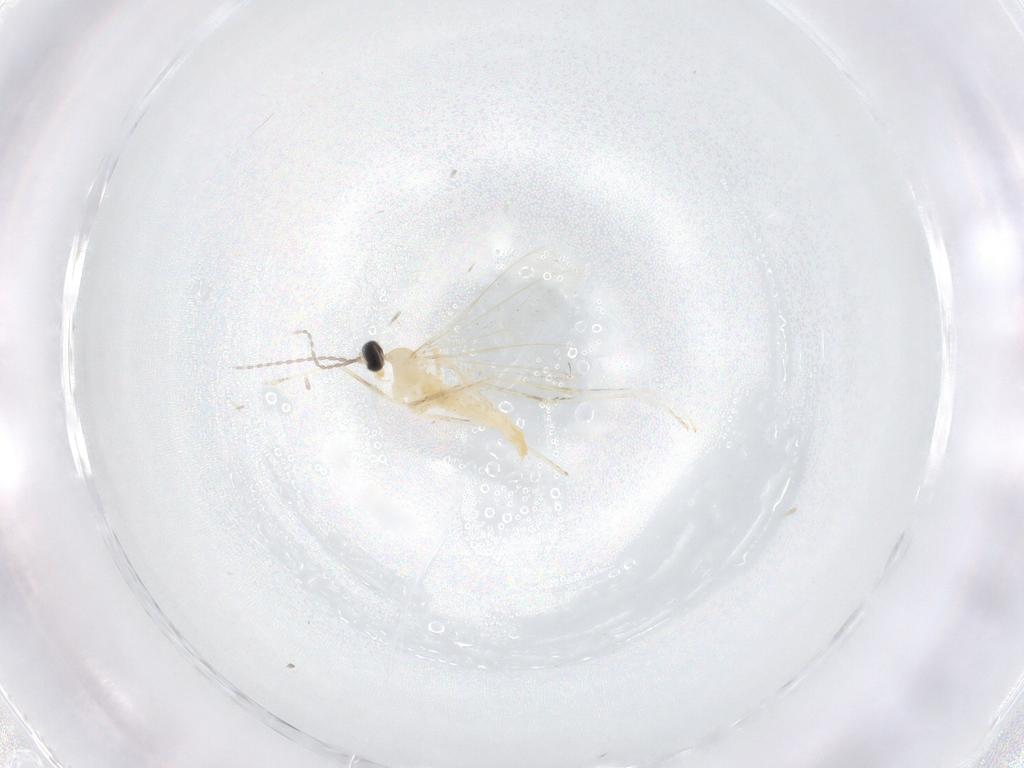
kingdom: Animalia
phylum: Arthropoda
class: Insecta
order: Diptera
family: Cecidomyiidae
